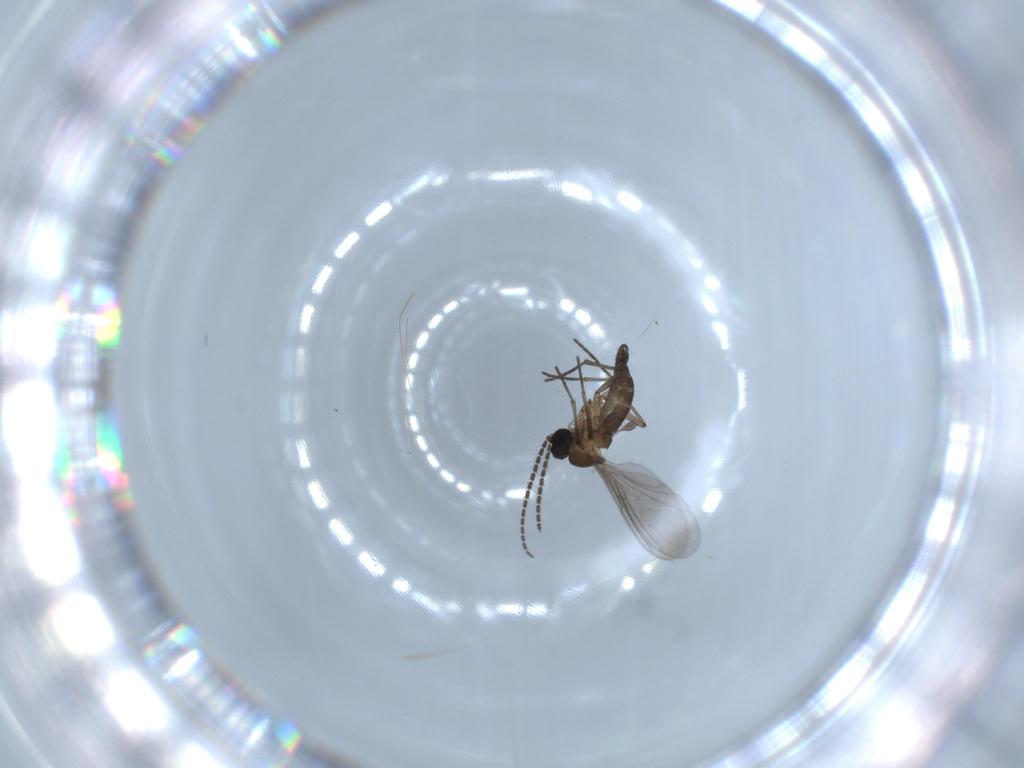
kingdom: Animalia
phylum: Arthropoda
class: Insecta
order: Diptera
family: Sciaridae
